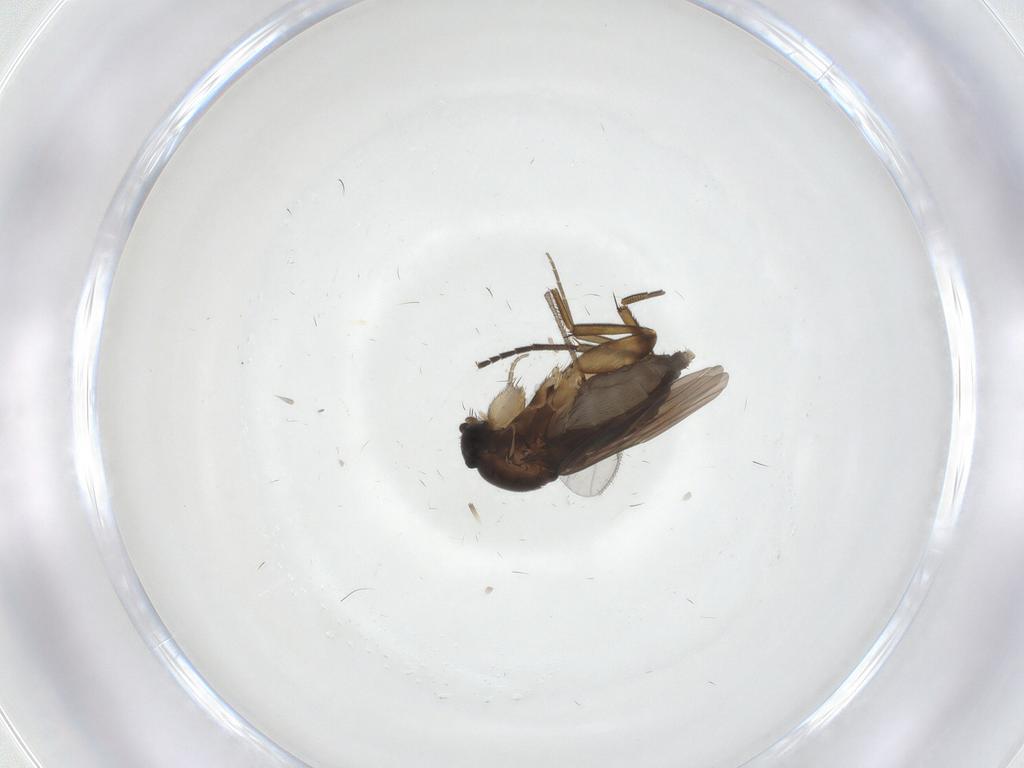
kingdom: Animalia
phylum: Arthropoda
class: Insecta
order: Diptera
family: Phoridae
